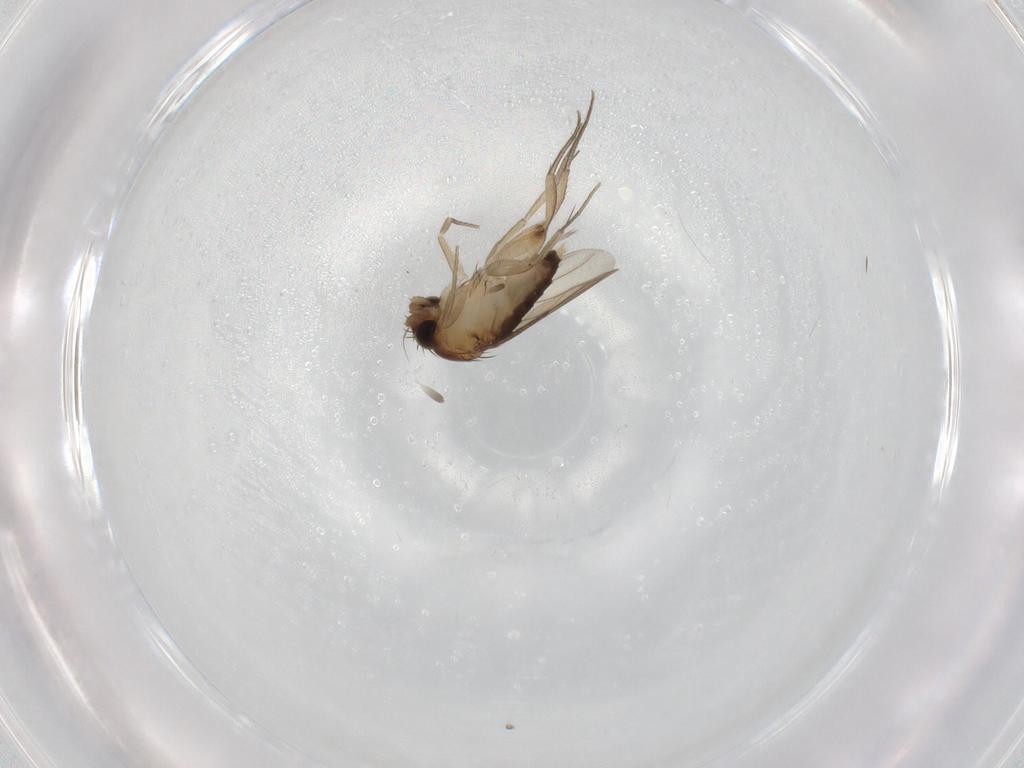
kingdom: Animalia
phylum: Arthropoda
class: Insecta
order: Diptera
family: Phoridae
